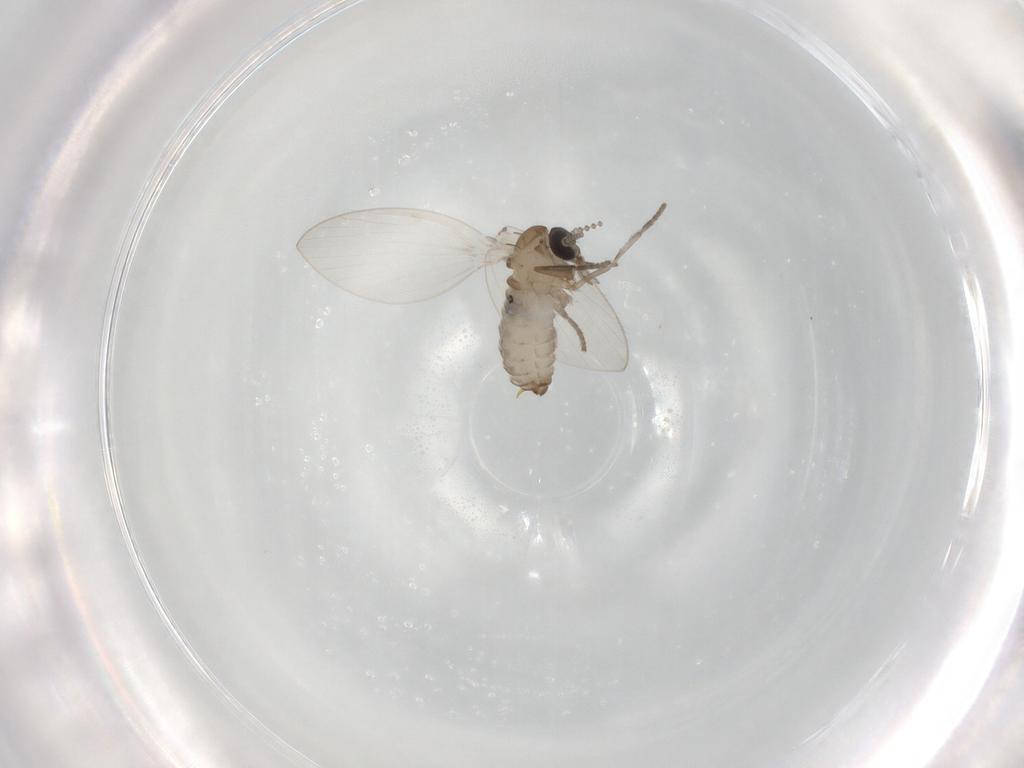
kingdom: Animalia
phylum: Arthropoda
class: Insecta
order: Diptera
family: Psychodidae
